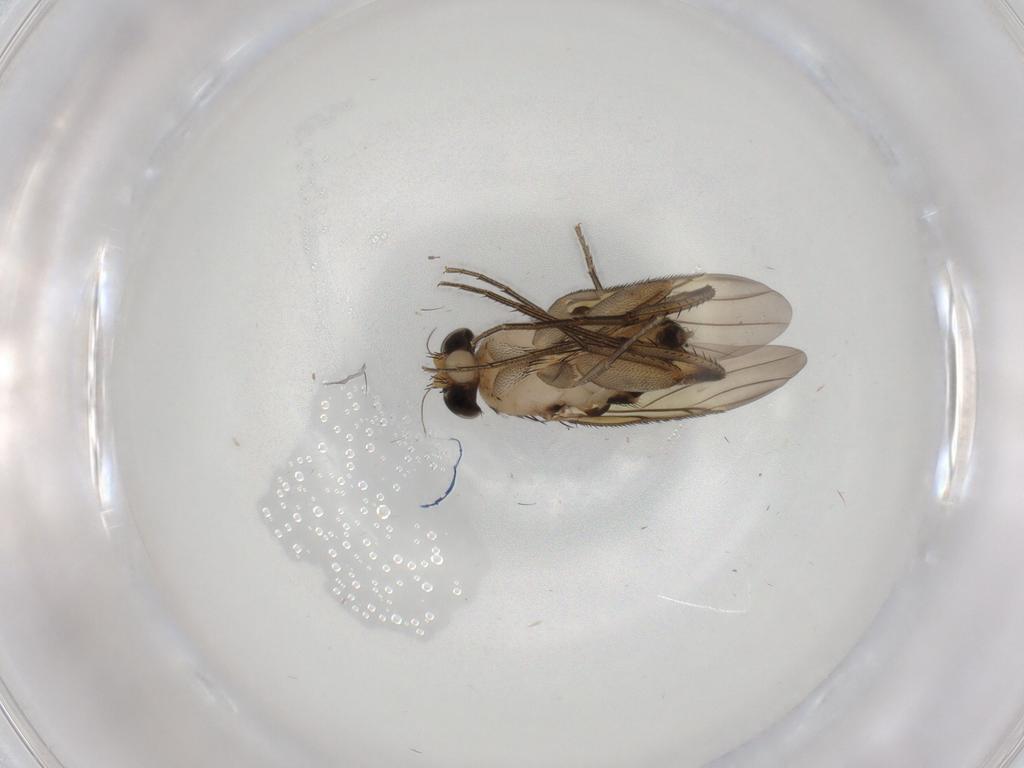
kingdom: Animalia
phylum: Arthropoda
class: Insecta
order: Diptera
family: Phoridae
